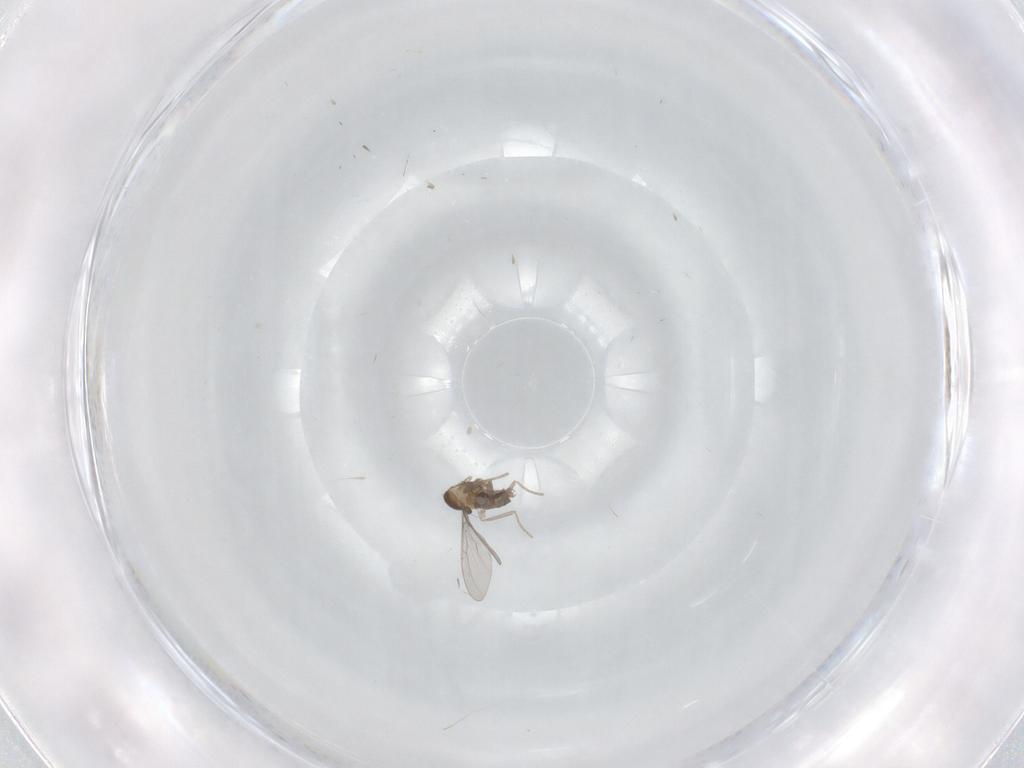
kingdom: Animalia
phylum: Arthropoda
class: Insecta
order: Diptera
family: Cecidomyiidae
